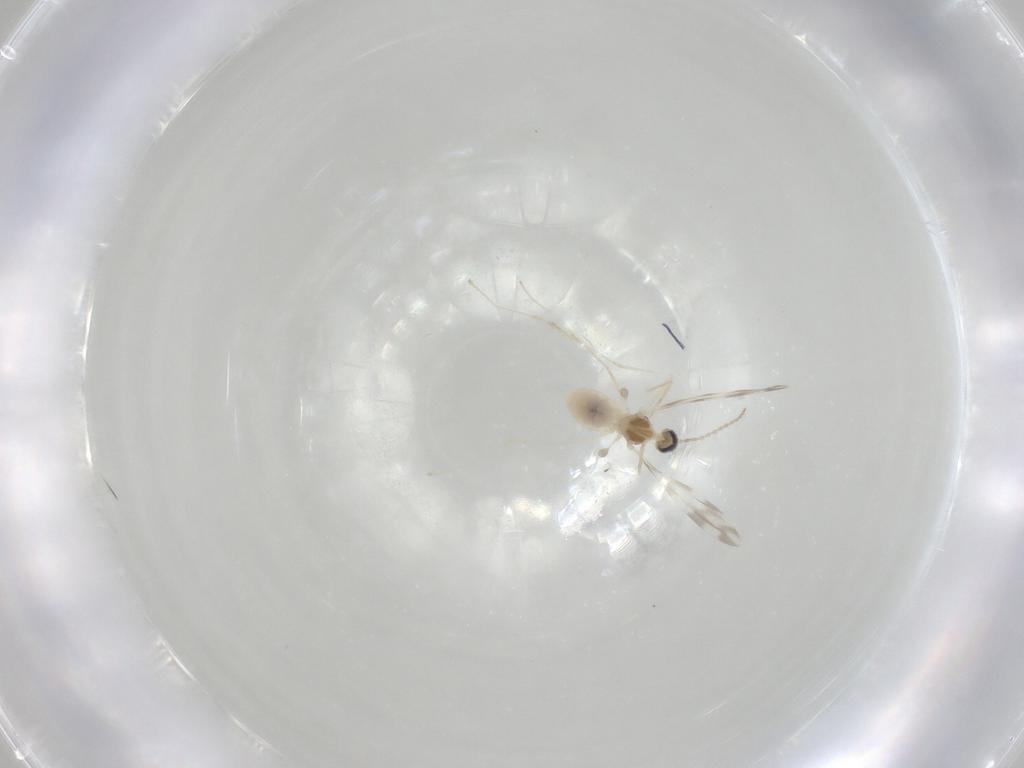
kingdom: Animalia
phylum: Arthropoda
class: Insecta
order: Diptera
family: Cecidomyiidae
